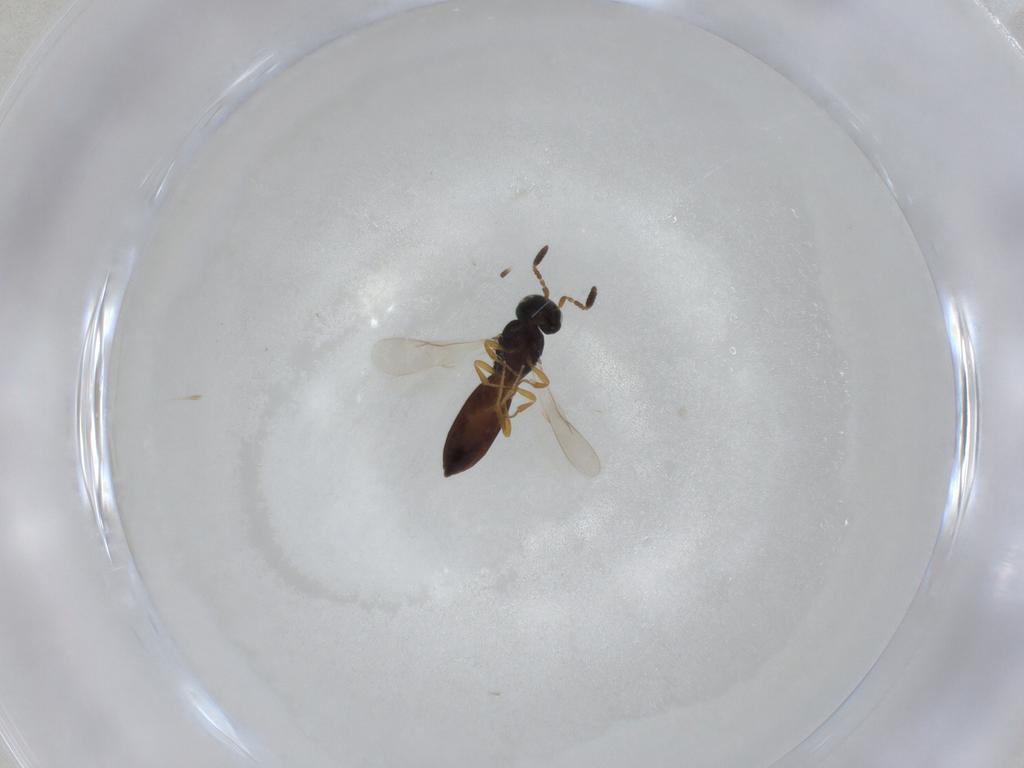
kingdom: Animalia
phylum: Arthropoda
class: Insecta
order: Hymenoptera
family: Scelionidae
